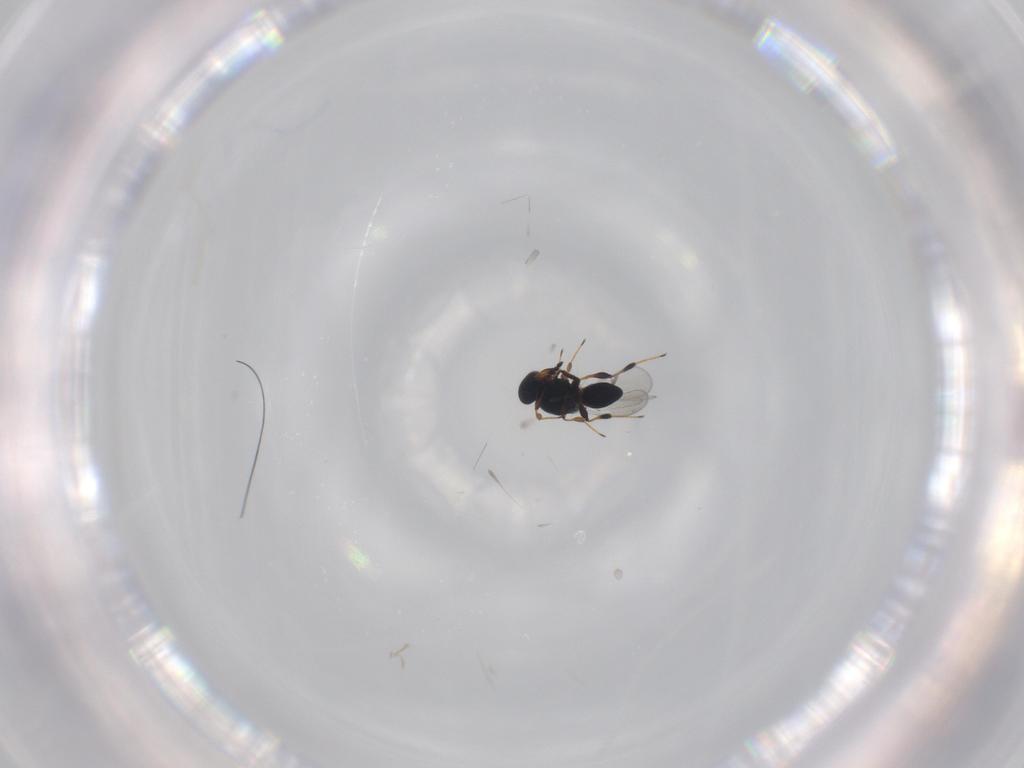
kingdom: Animalia
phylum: Arthropoda
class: Insecta
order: Hymenoptera
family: Platygastridae
